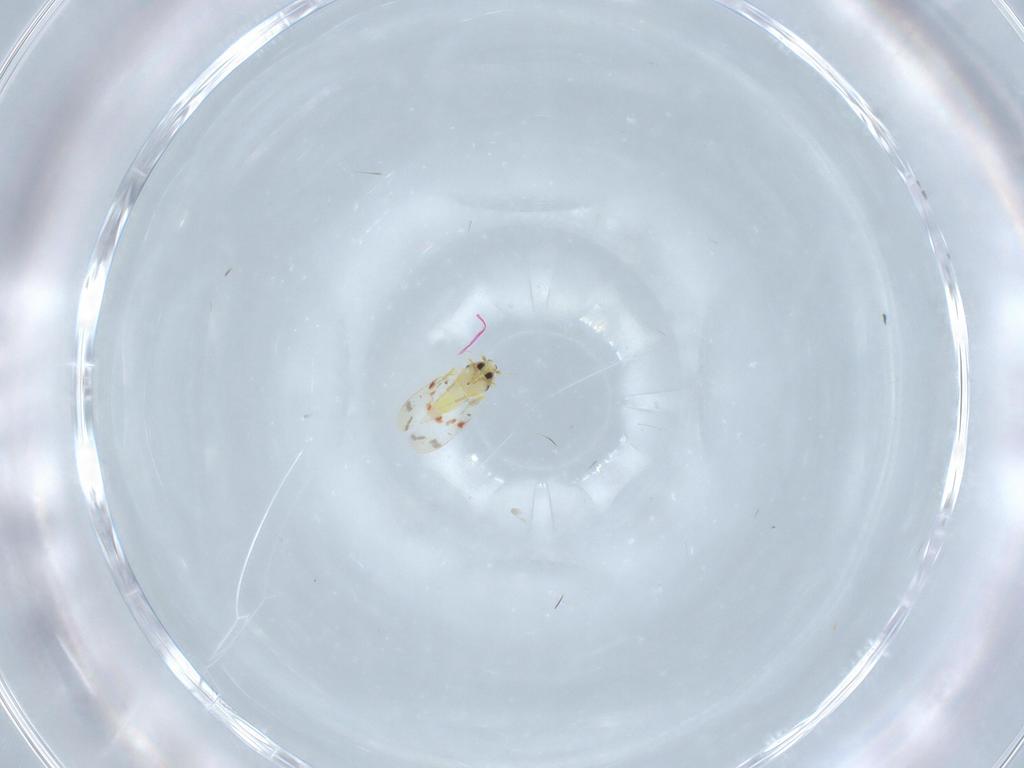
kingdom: Animalia
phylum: Arthropoda
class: Insecta
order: Hemiptera
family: Aleyrodidae
